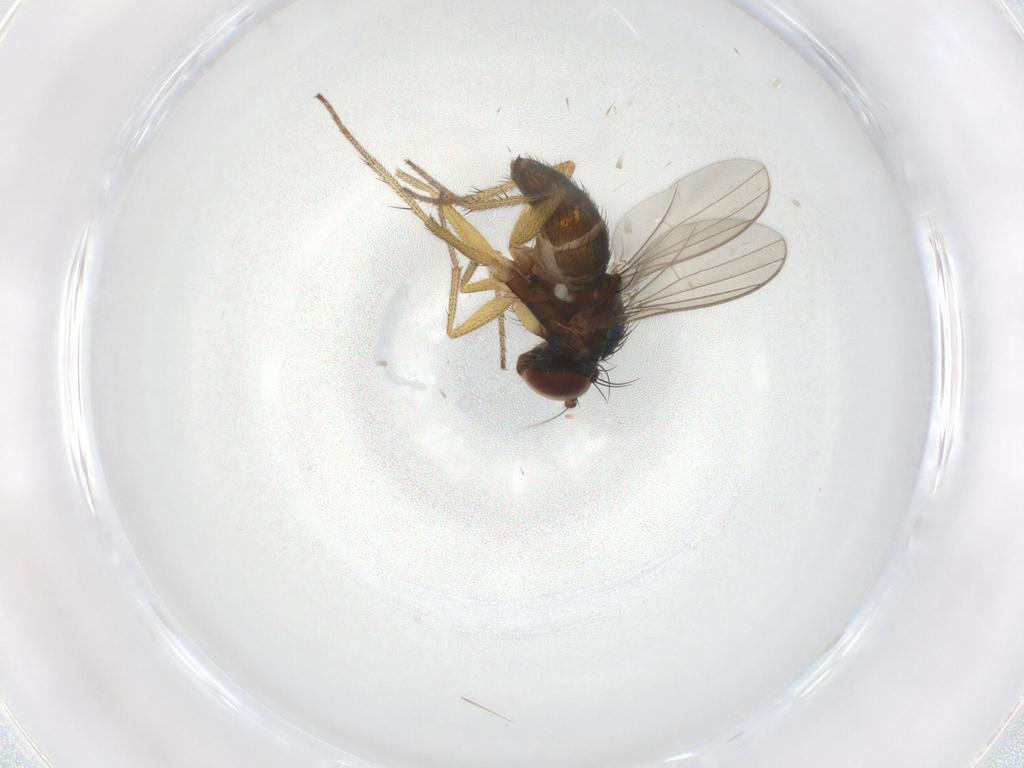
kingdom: Animalia
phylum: Arthropoda
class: Insecta
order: Diptera
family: Dolichopodidae
